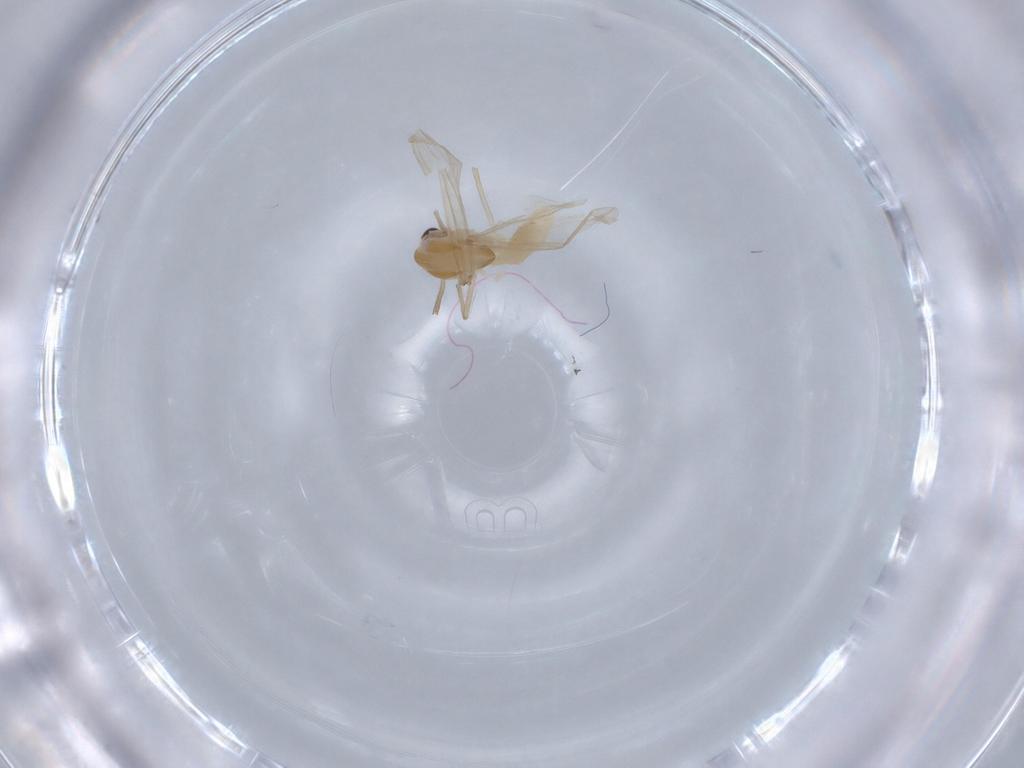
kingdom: Animalia
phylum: Arthropoda
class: Insecta
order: Diptera
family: Chironomidae
